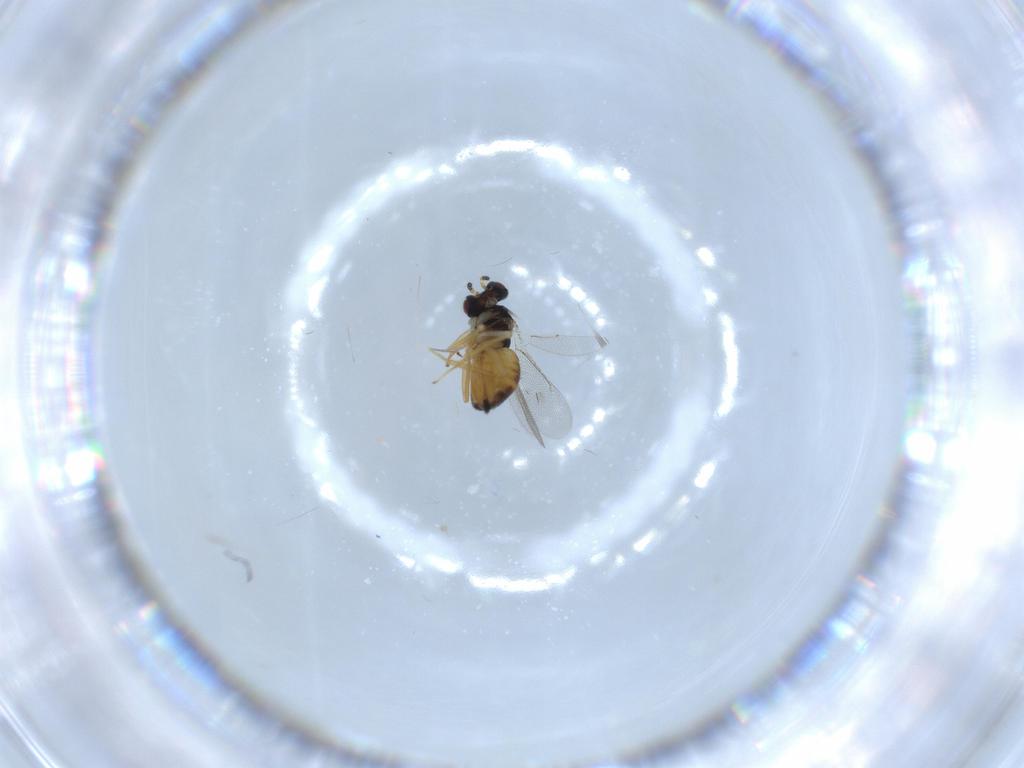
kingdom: Animalia
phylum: Arthropoda
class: Insecta
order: Hymenoptera
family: Eulophidae
